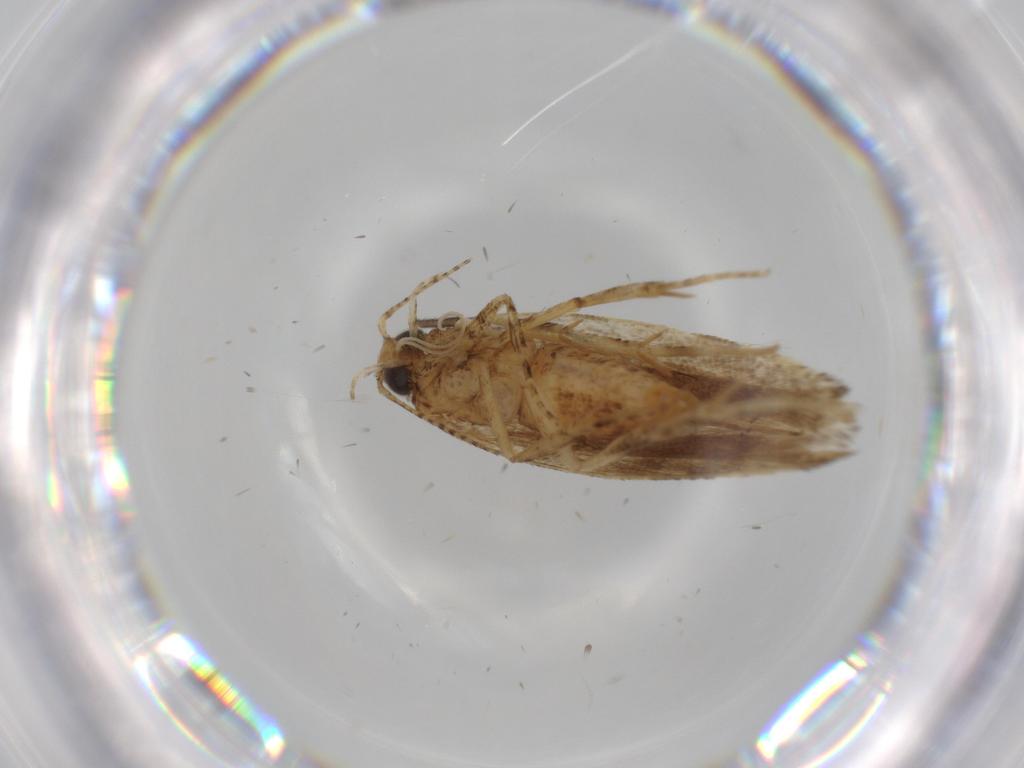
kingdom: Animalia
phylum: Arthropoda
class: Insecta
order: Lepidoptera
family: Gelechiidae
